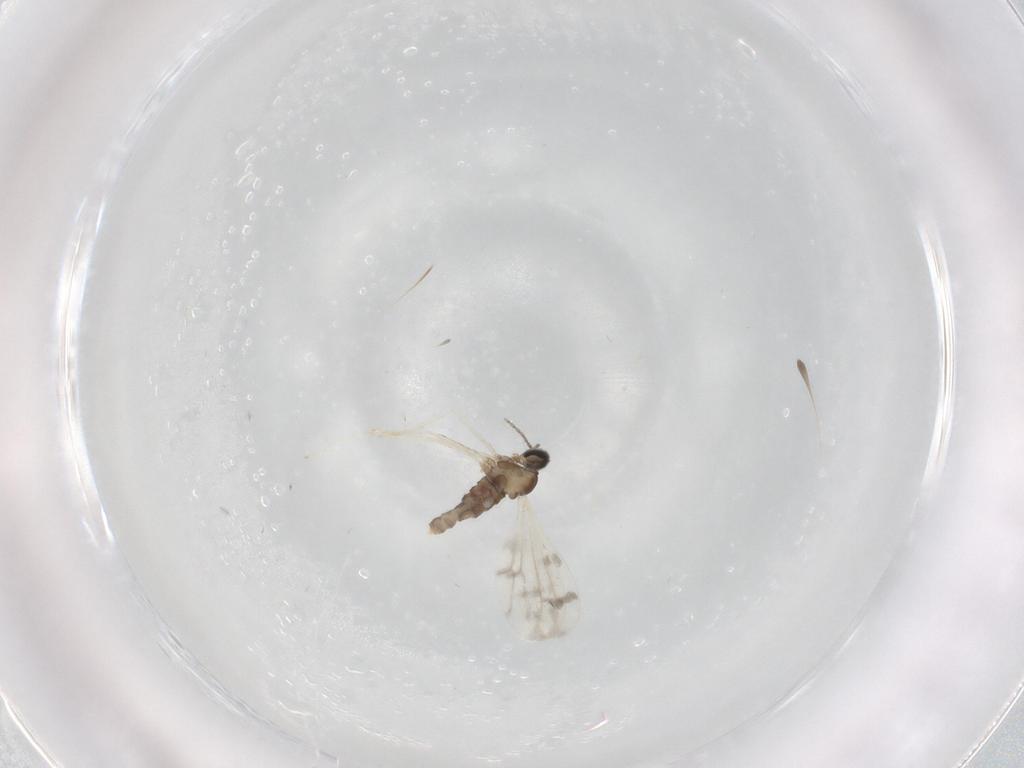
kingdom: Animalia
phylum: Arthropoda
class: Insecta
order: Diptera
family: Cecidomyiidae
